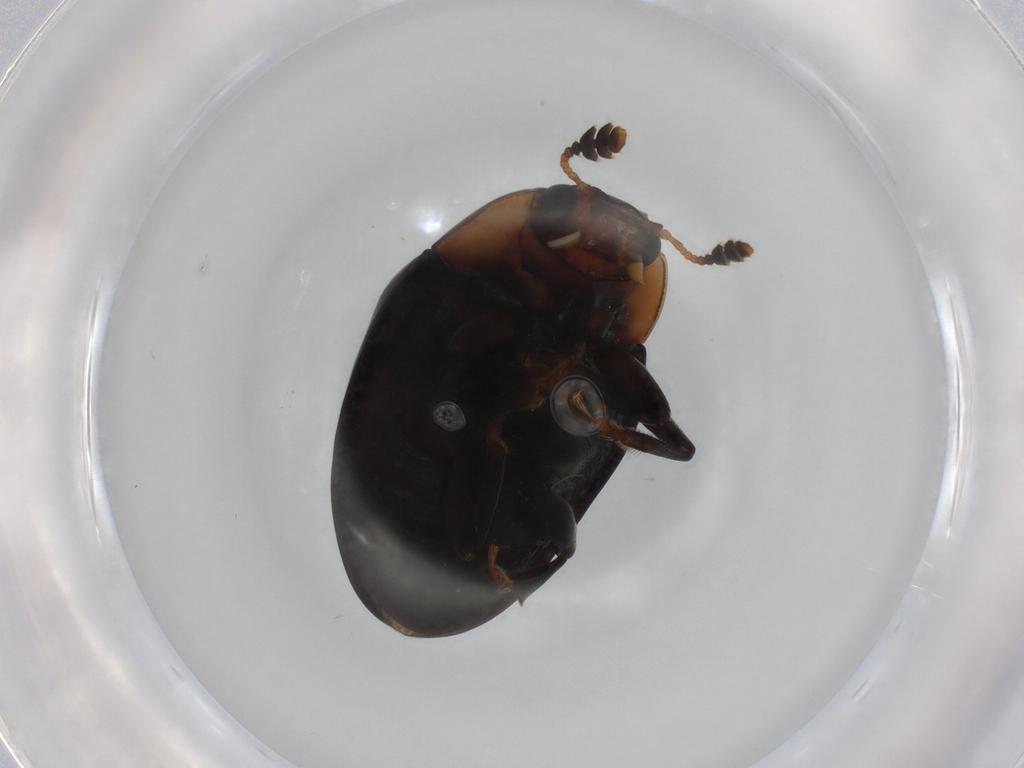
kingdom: Animalia
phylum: Arthropoda
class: Insecta
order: Coleoptera
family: Erotylidae
